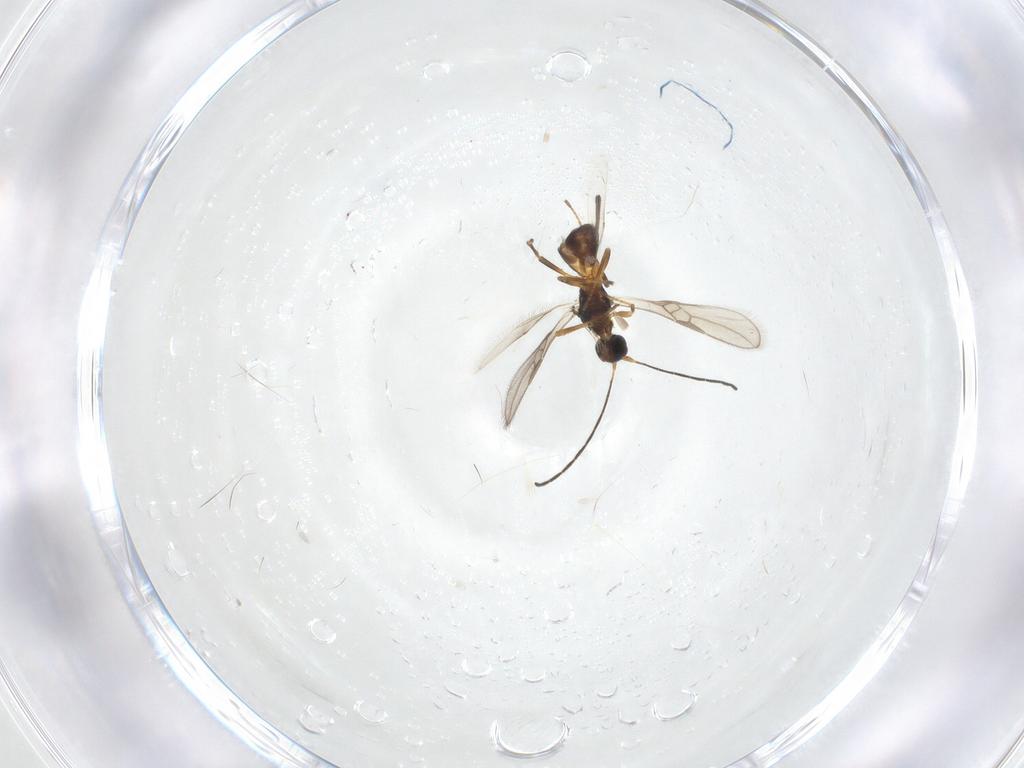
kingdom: Animalia
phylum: Arthropoda
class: Insecta
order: Hymenoptera
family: Braconidae
